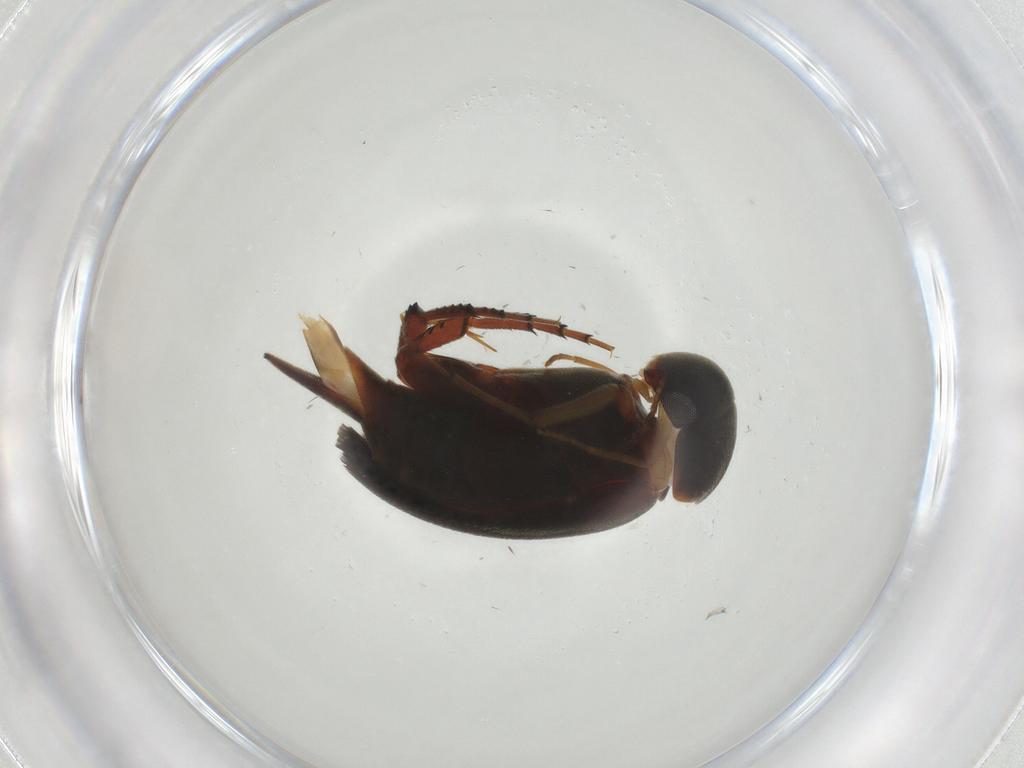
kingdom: Animalia
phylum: Arthropoda
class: Insecta
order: Coleoptera
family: Mordellidae
